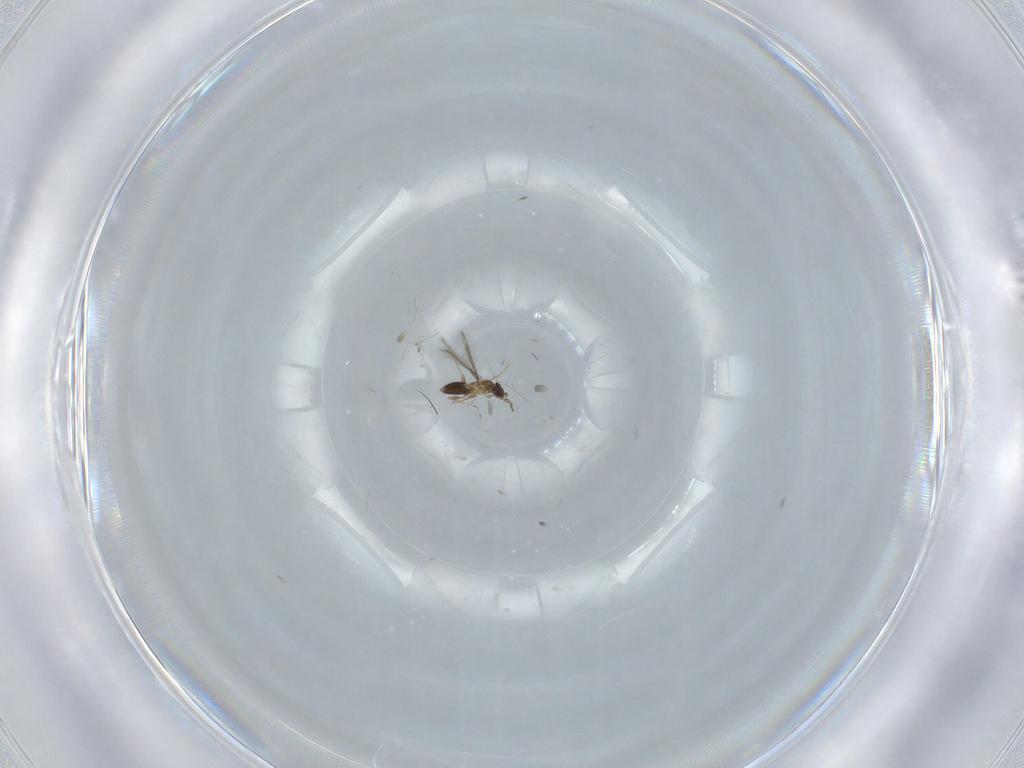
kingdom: Animalia
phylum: Arthropoda
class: Insecta
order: Hymenoptera
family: Mymaridae
